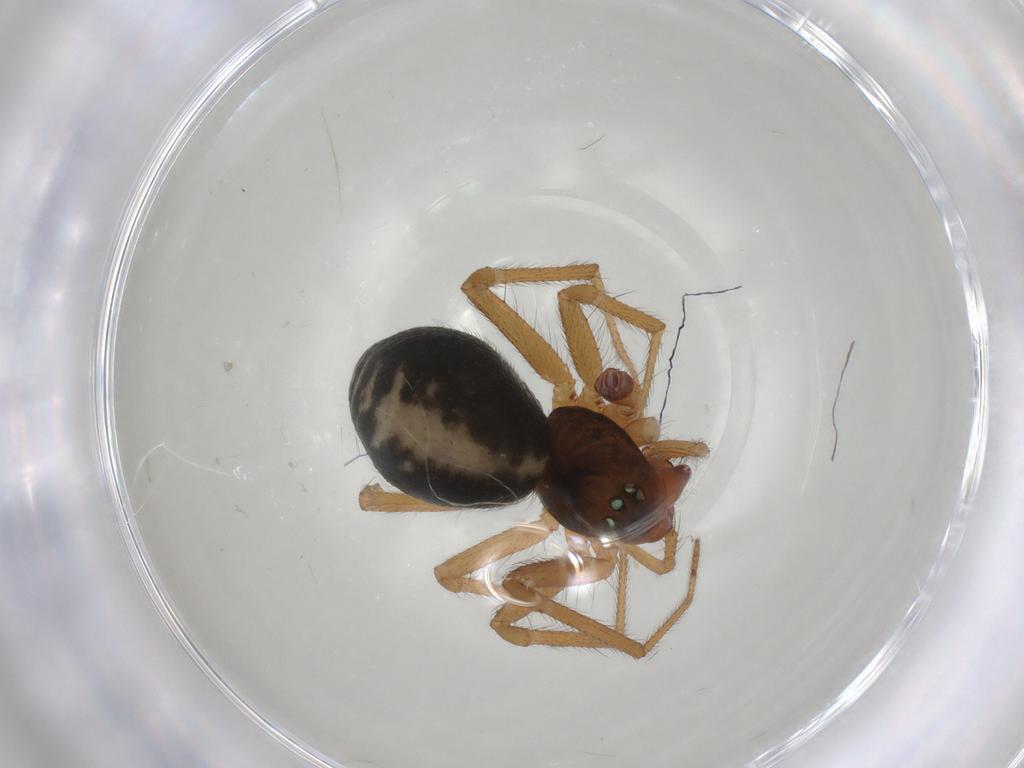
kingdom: Animalia
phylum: Arthropoda
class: Arachnida
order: Araneae
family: Linyphiidae
